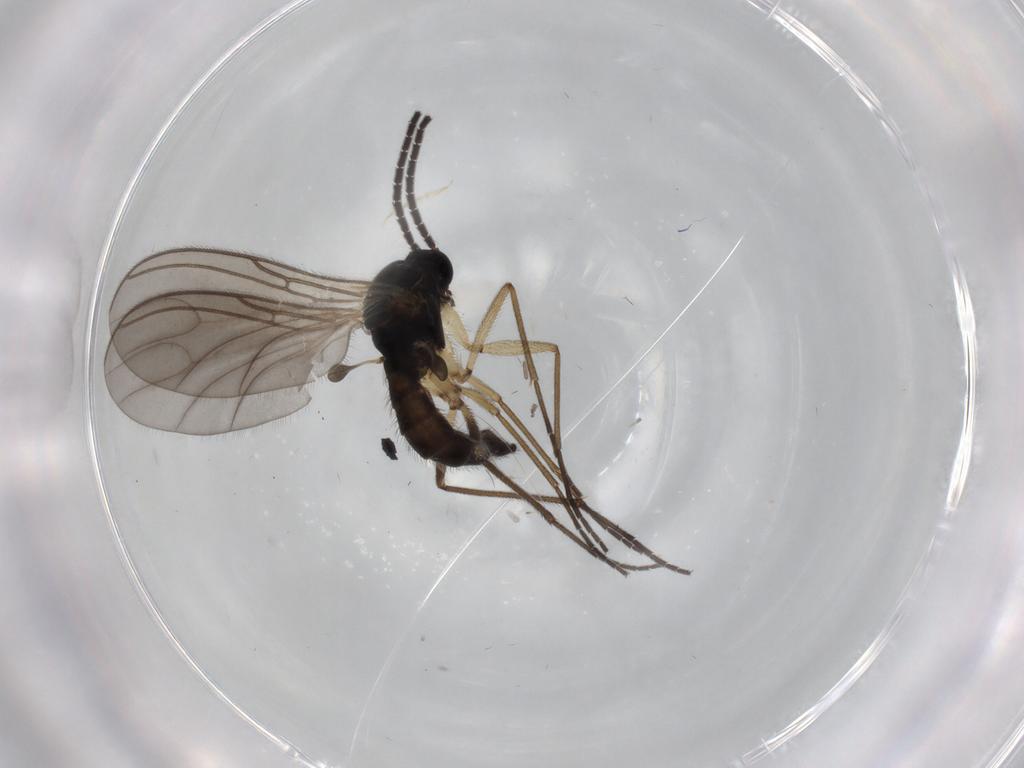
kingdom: Animalia
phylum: Arthropoda
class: Insecta
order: Diptera
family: Sciaridae
